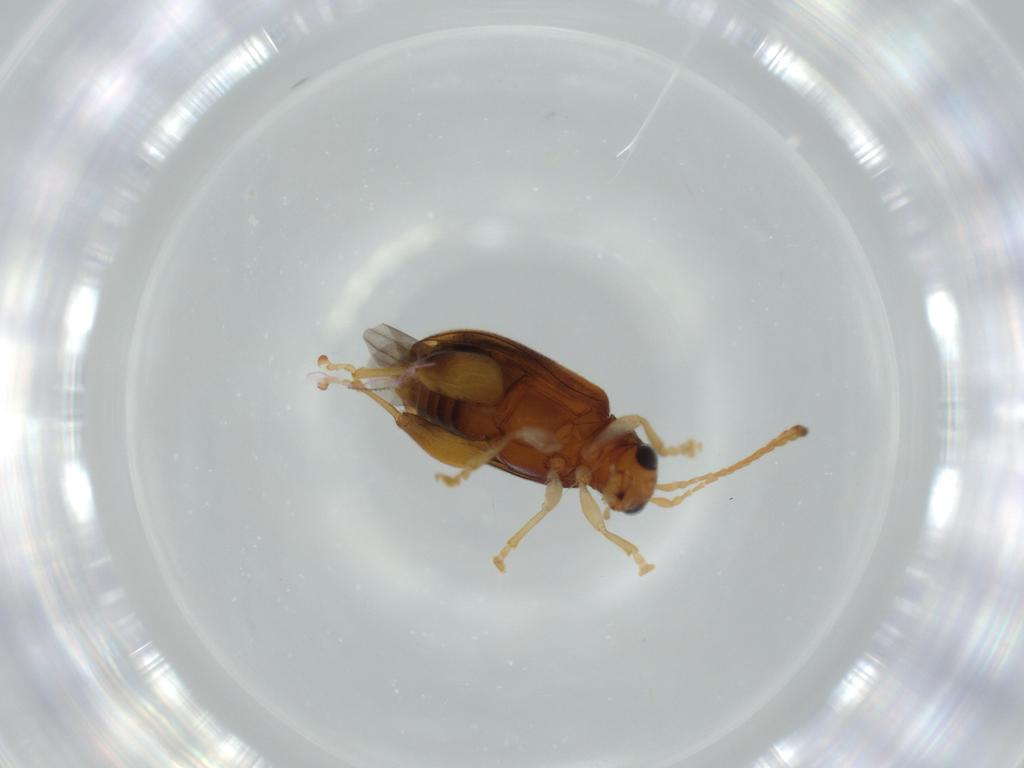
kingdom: Animalia
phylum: Arthropoda
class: Insecta
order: Coleoptera
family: Chrysomelidae
